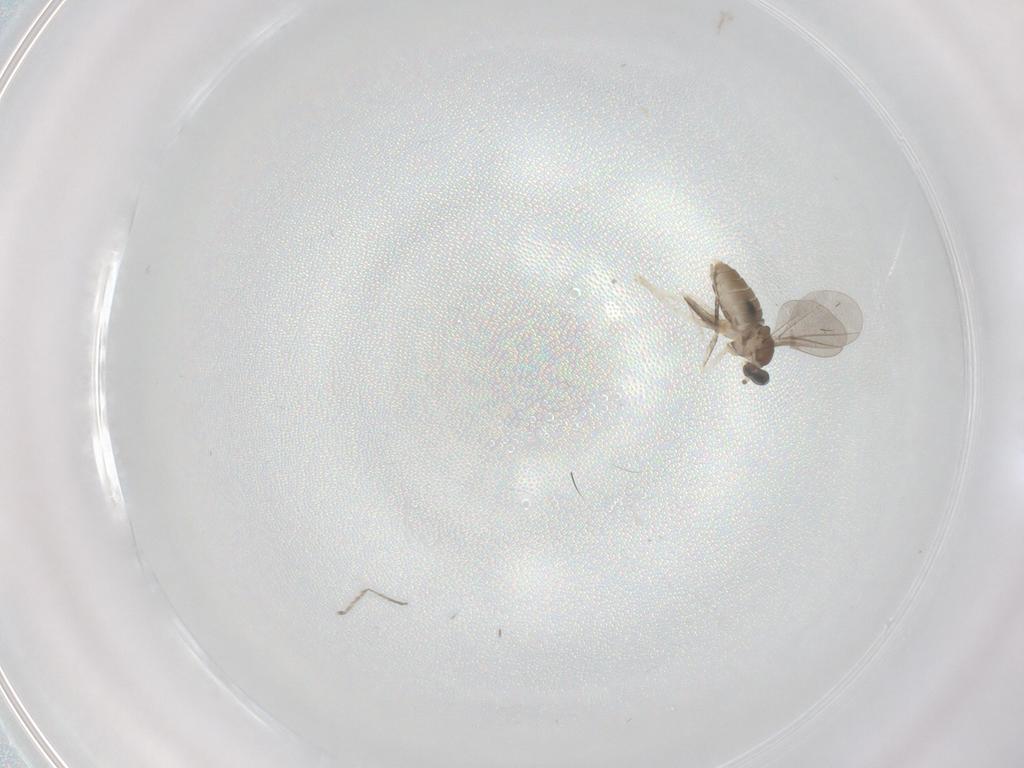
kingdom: Animalia
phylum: Arthropoda
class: Insecta
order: Diptera
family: Cecidomyiidae
